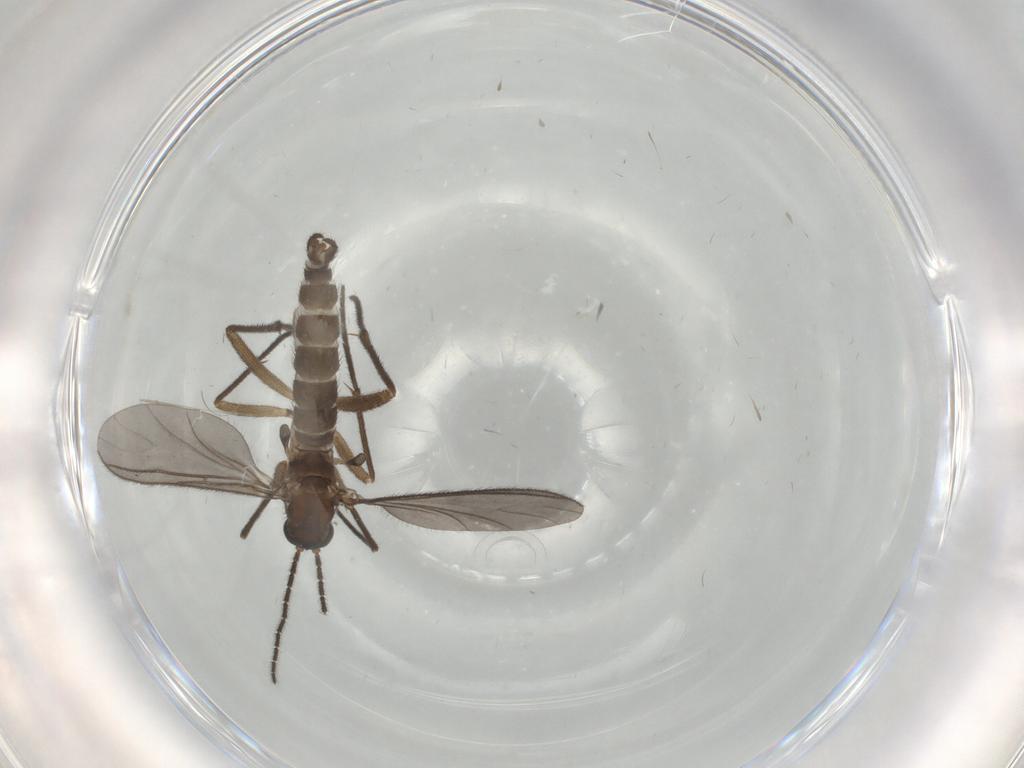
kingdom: Animalia
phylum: Arthropoda
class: Insecta
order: Diptera
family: Sciaridae
